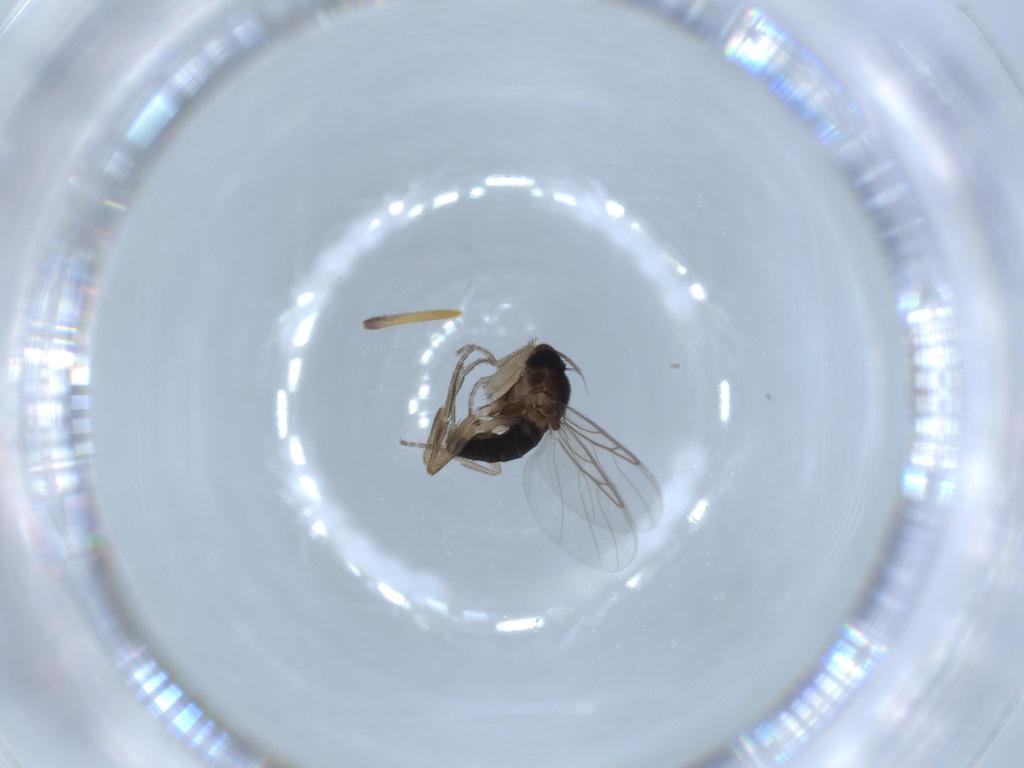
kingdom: Animalia
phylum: Arthropoda
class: Insecta
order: Diptera
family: Phoridae
